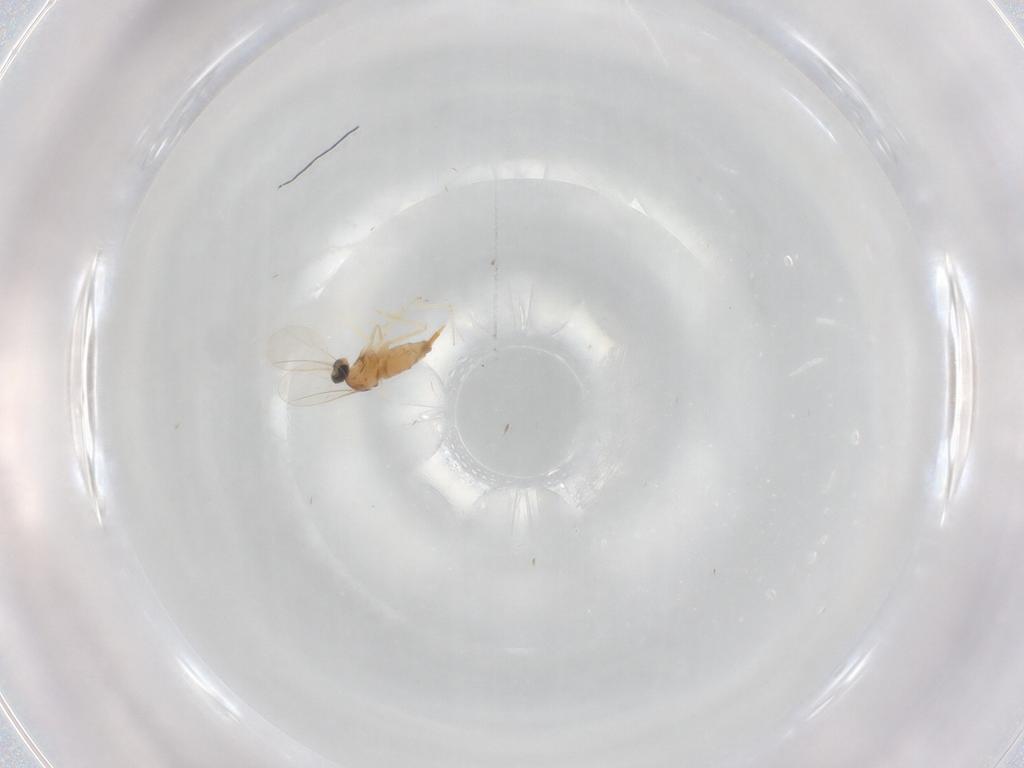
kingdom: Animalia
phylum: Arthropoda
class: Insecta
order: Diptera
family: Cecidomyiidae
